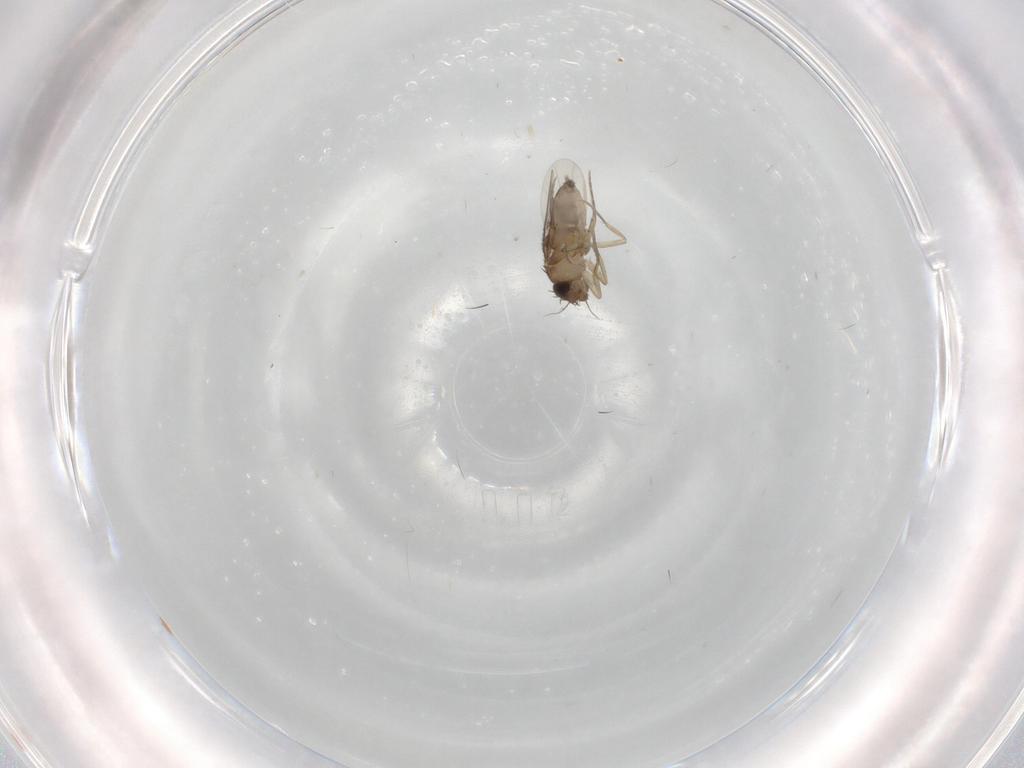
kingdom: Animalia
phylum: Arthropoda
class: Insecta
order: Diptera
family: Phoridae
